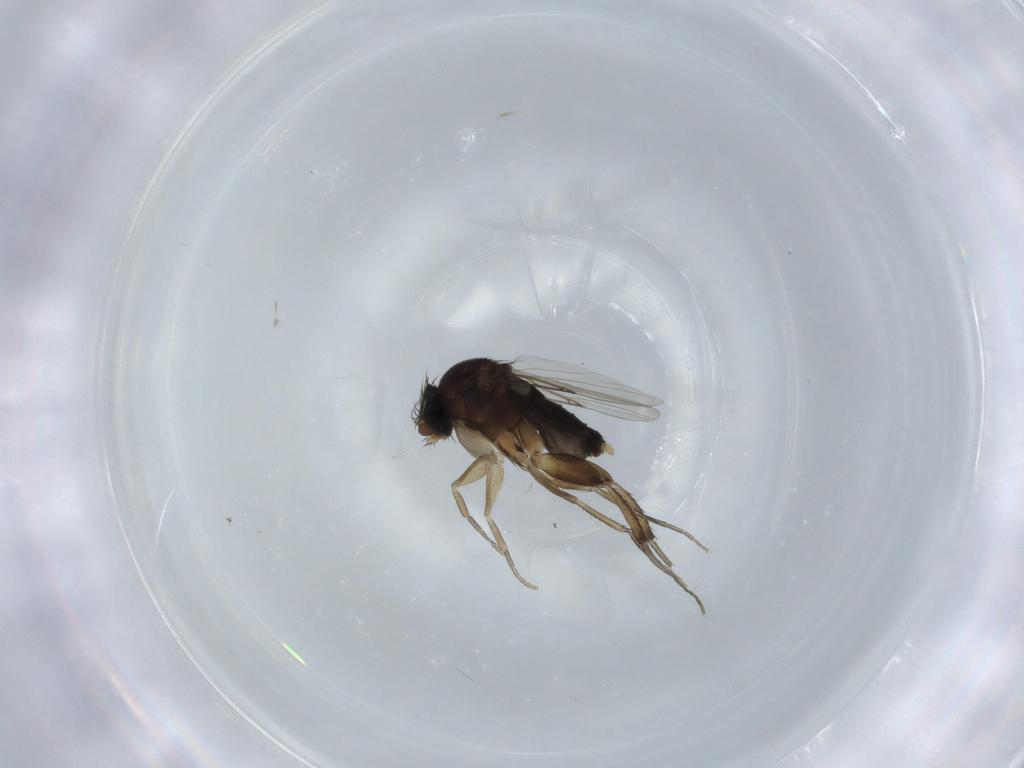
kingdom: Animalia
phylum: Arthropoda
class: Insecta
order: Diptera
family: Phoridae
